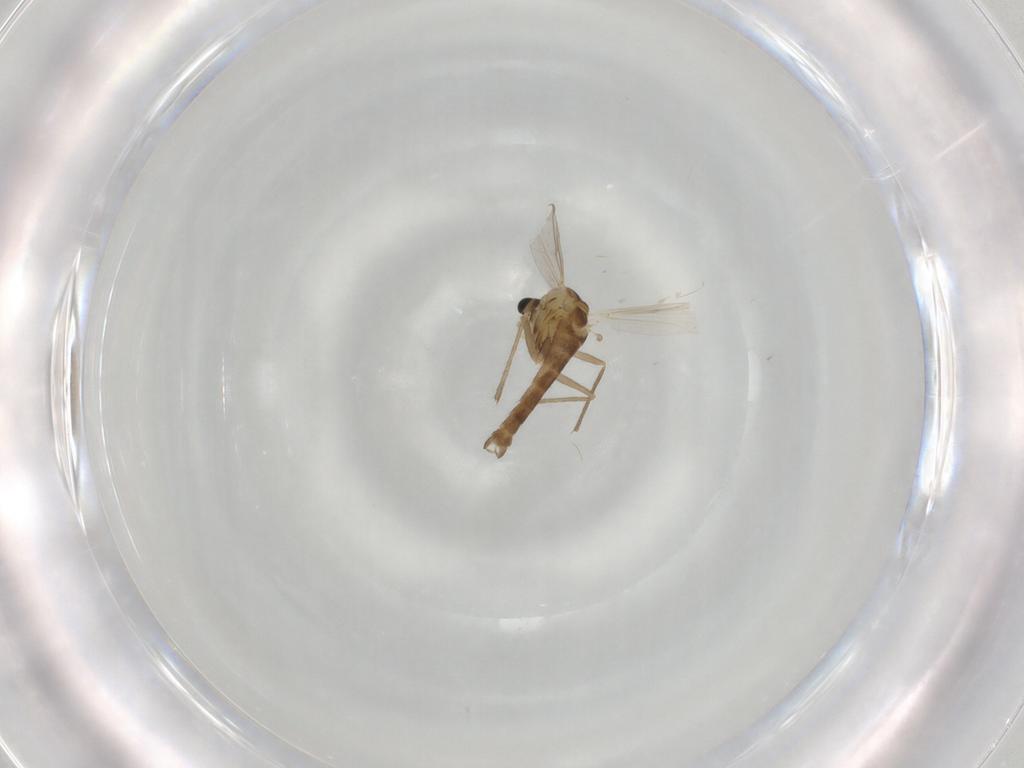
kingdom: Animalia
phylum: Arthropoda
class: Insecta
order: Diptera
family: Chironomidae
